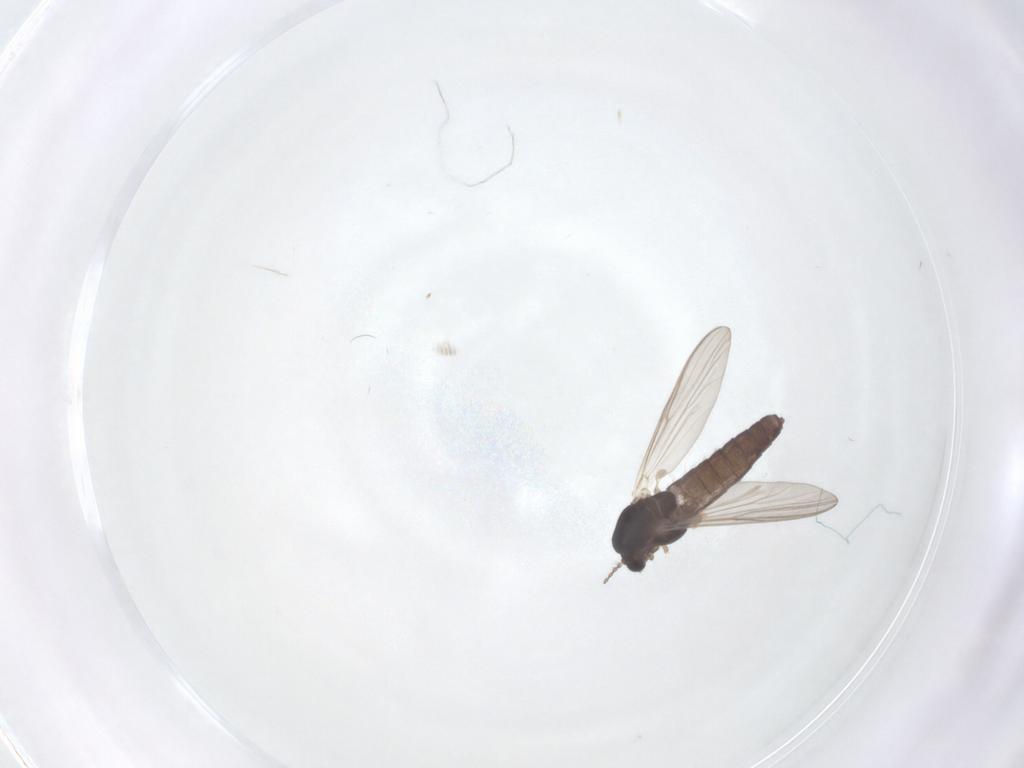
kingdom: Animalia
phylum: Arthropoda
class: Insecta
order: Diptera
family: Chironomidae
